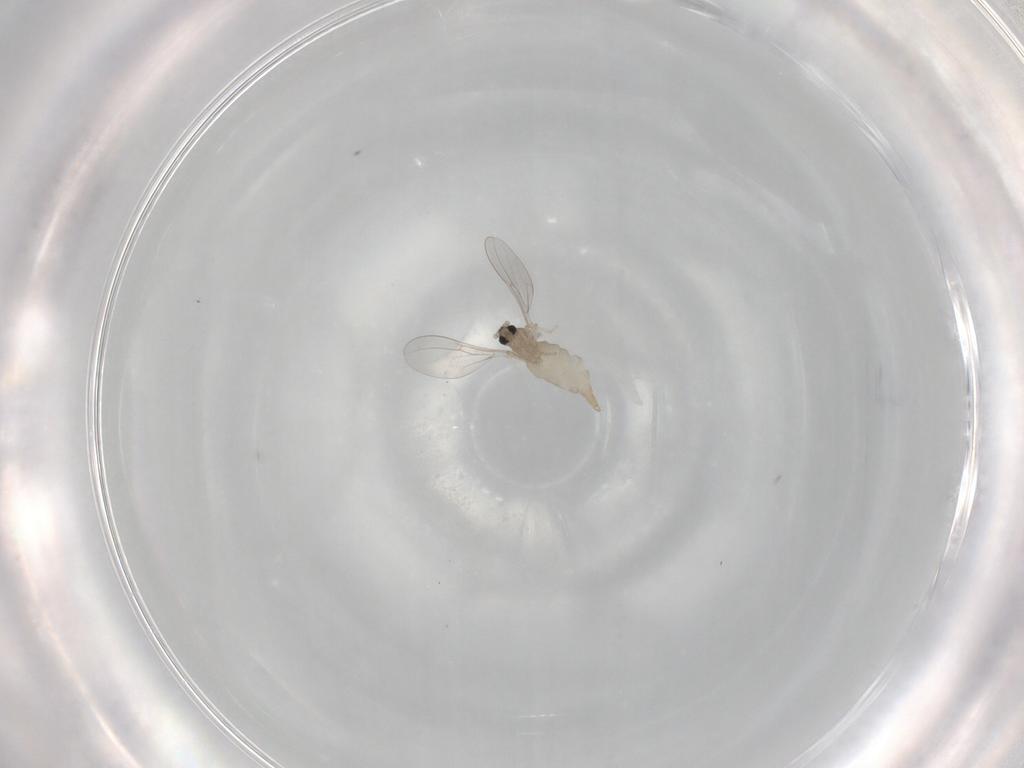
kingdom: Animalia
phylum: Arthropoda
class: Insecta
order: Diptera
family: Cecidomyiidae
